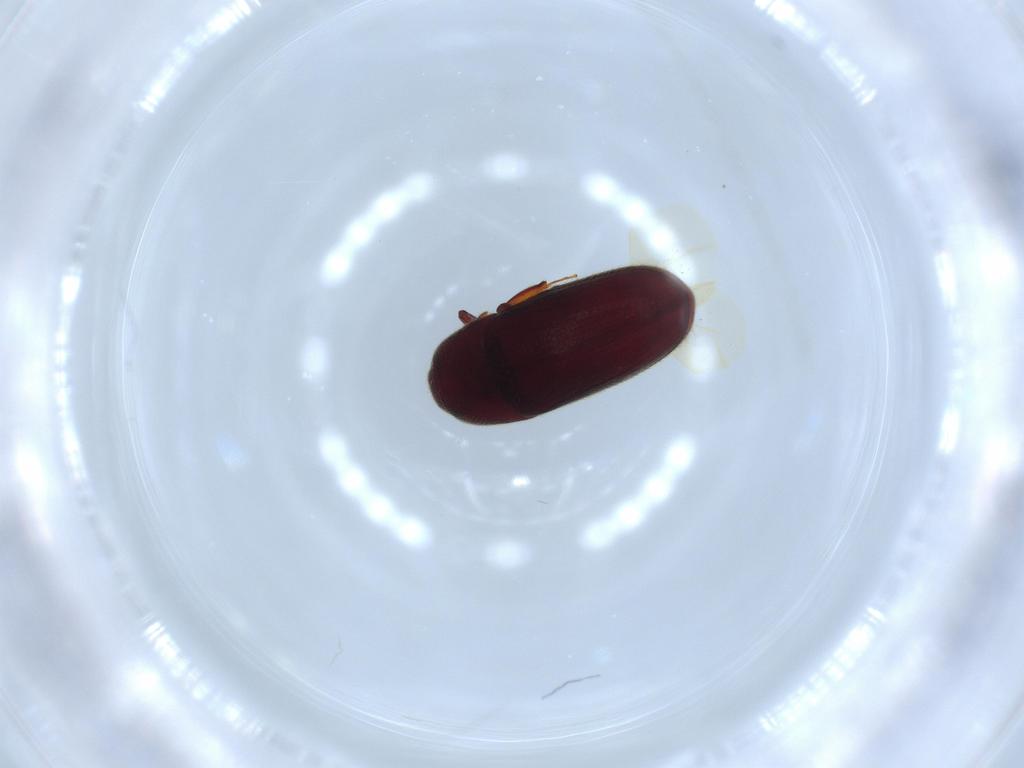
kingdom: Animalia
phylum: Arthropoda
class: Insecta
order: Coleoptera
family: Throscidae
